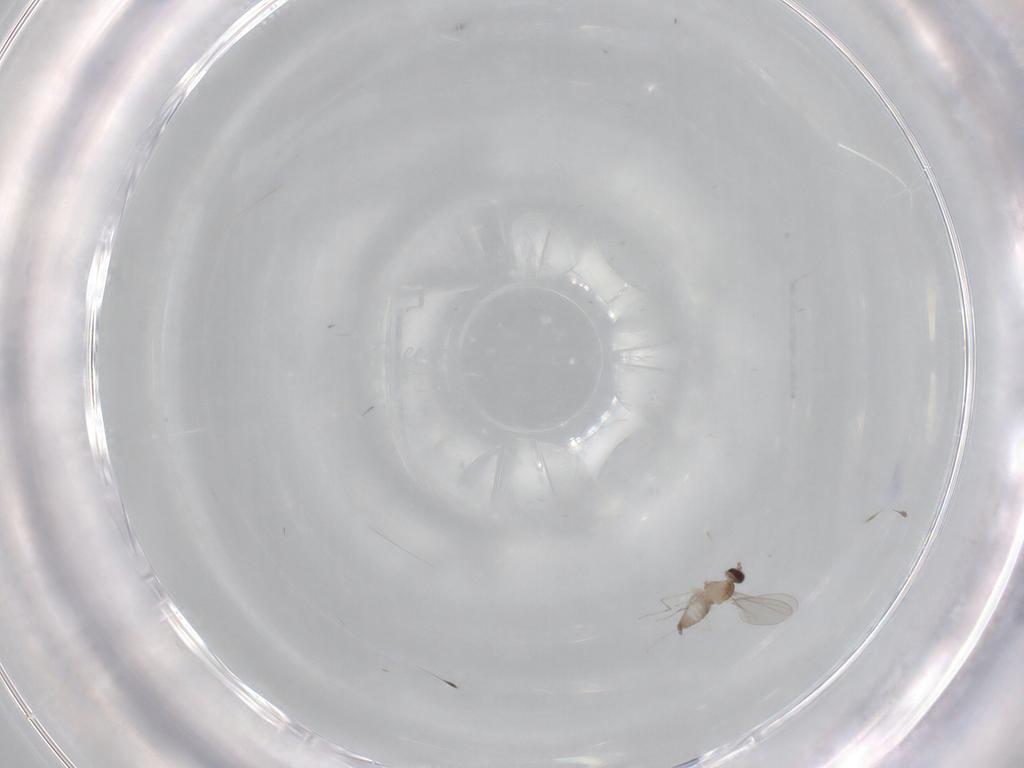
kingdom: Animalia
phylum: Arthropoda
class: Insecta
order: Diptera
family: Cecidomyiidae
